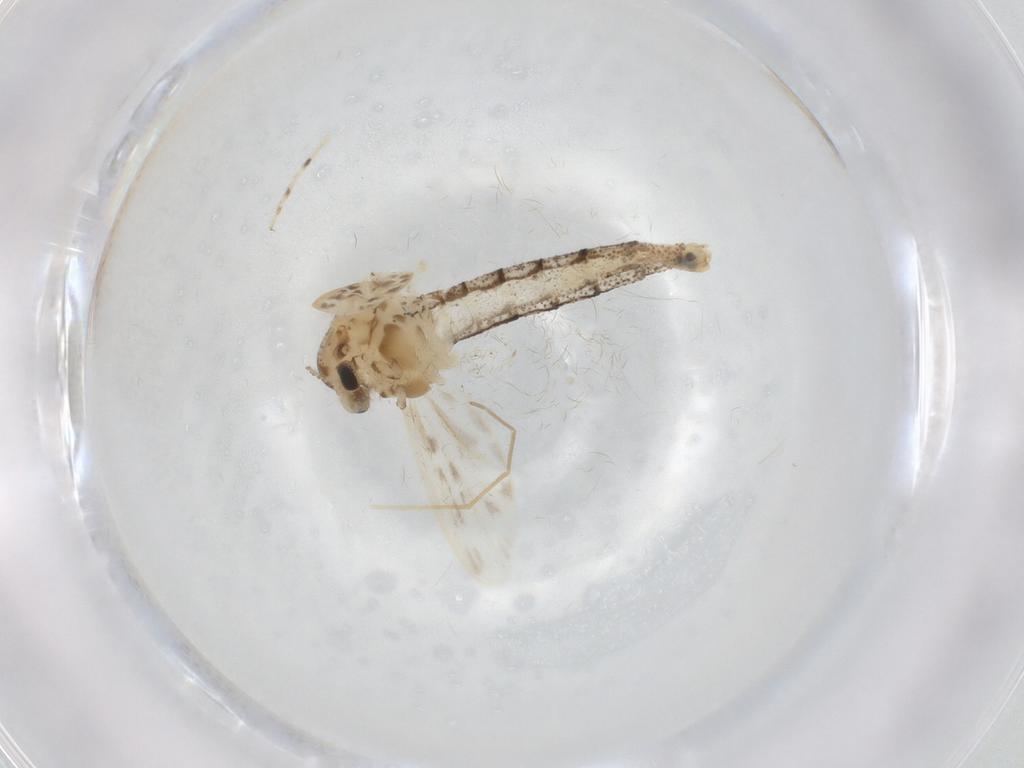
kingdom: Animalia
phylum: Arthropoda
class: Insecta
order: Diptera
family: Chaoboridae
